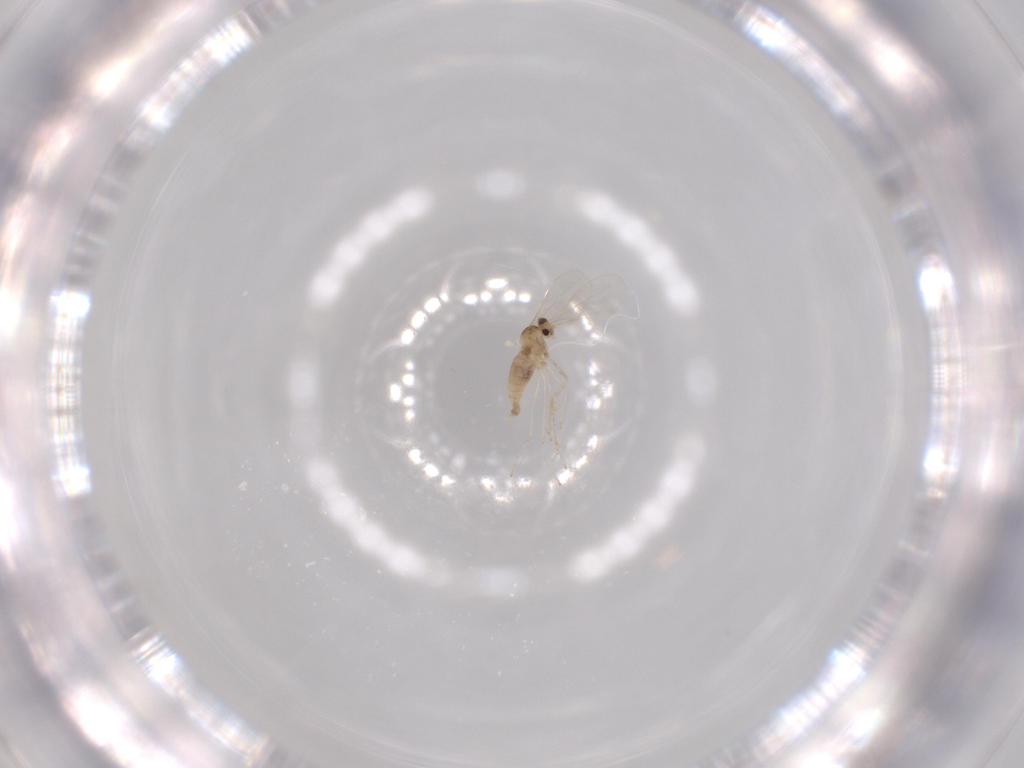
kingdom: Animalia
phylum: Arthropoda
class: Insecta
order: Diptera
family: Cecidomyiidae
